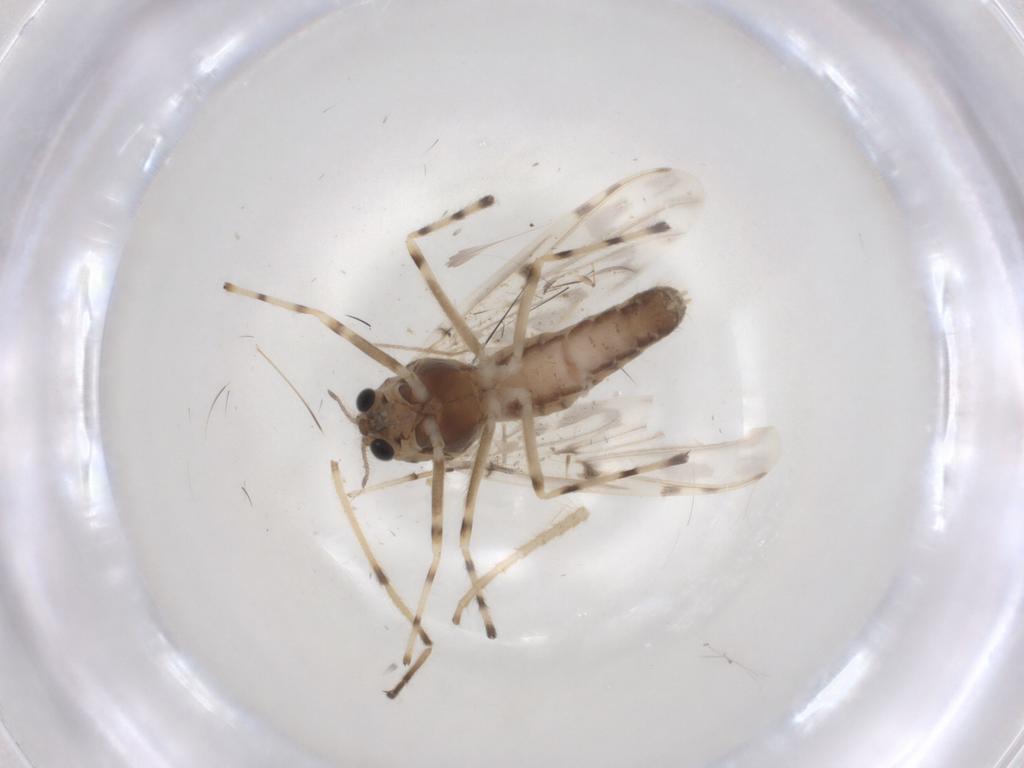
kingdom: Animalia
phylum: Arthropoda
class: Insecta
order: Diptera
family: Chironomidae
